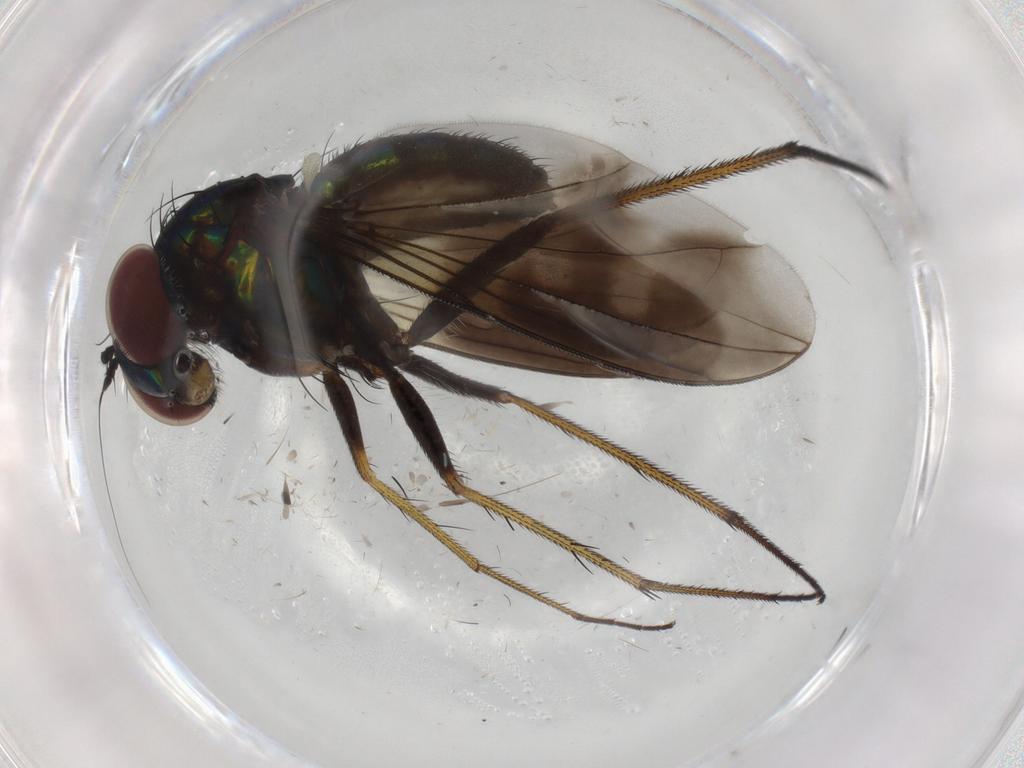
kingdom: Animalia
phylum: Arthropoda
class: Insecta
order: Diptera
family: Dolichopodidae
